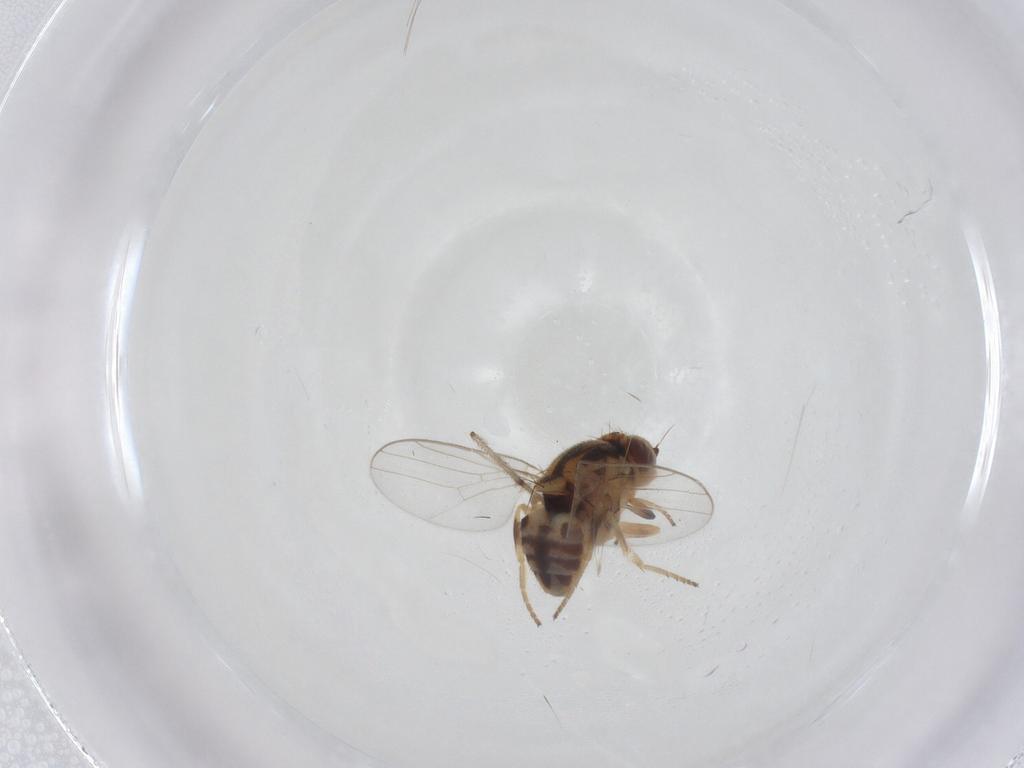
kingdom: Animalia
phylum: Arthropoda
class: Insecta
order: Diptera
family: Chloropidae
